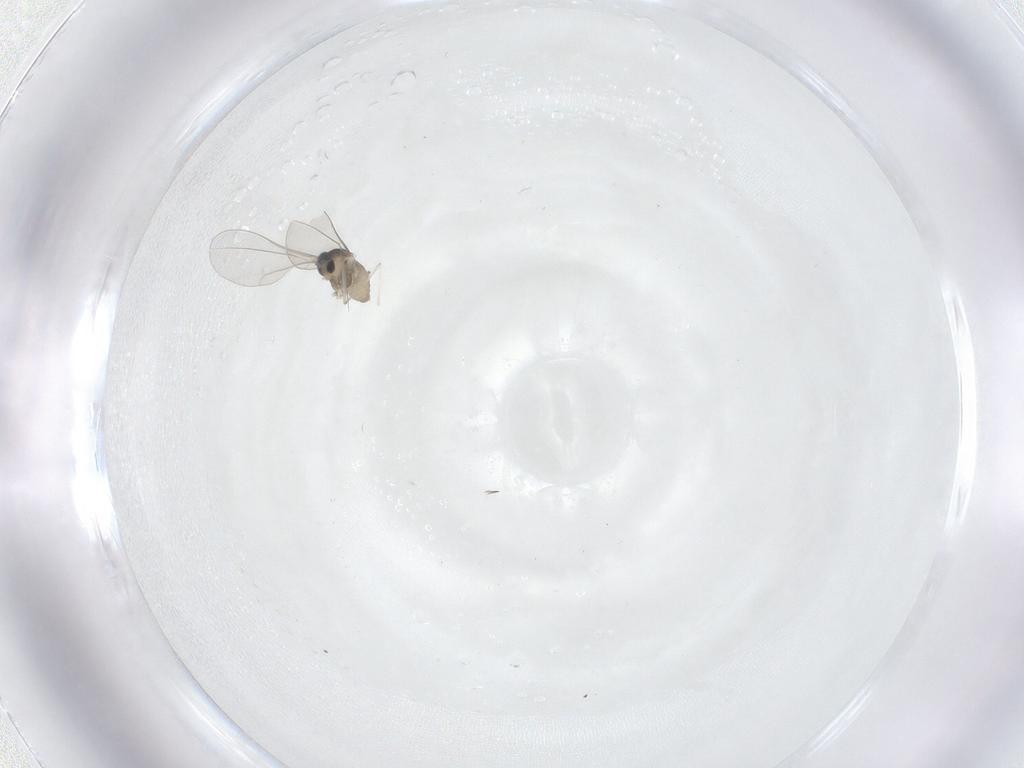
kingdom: Animalia
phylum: Arthropoda
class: Insecta
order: Diptera
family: Cecidomyiidae
